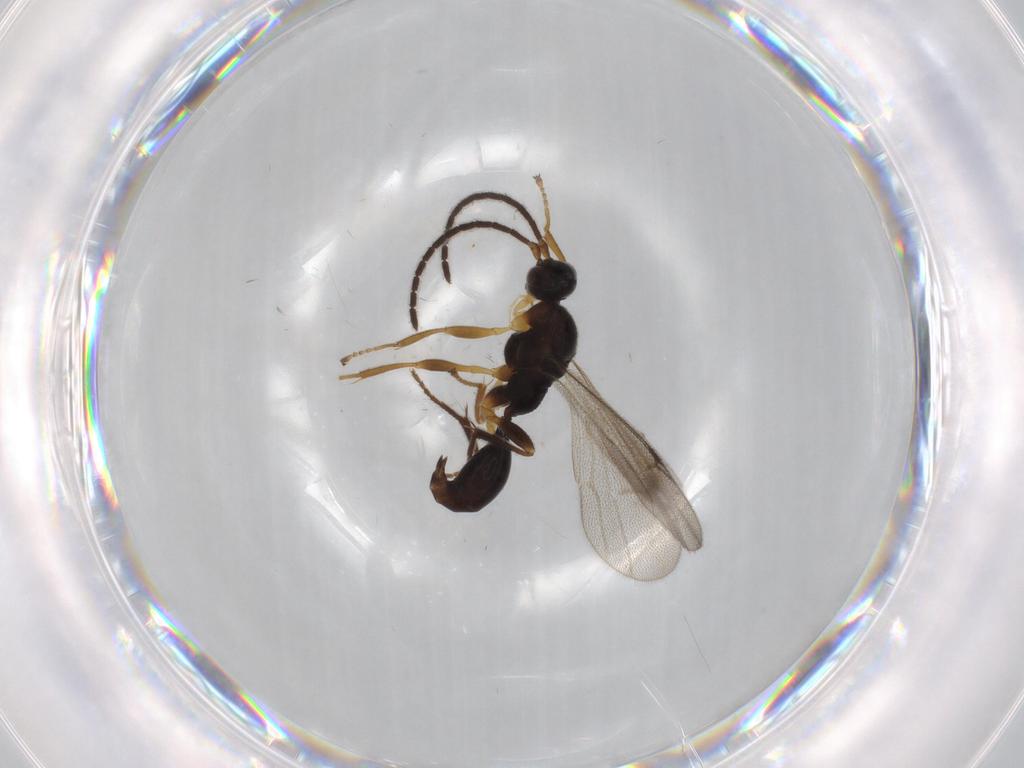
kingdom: Animalia
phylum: Arthropoda
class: Insecta
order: Hymenoptera
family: Proctotrupidae
